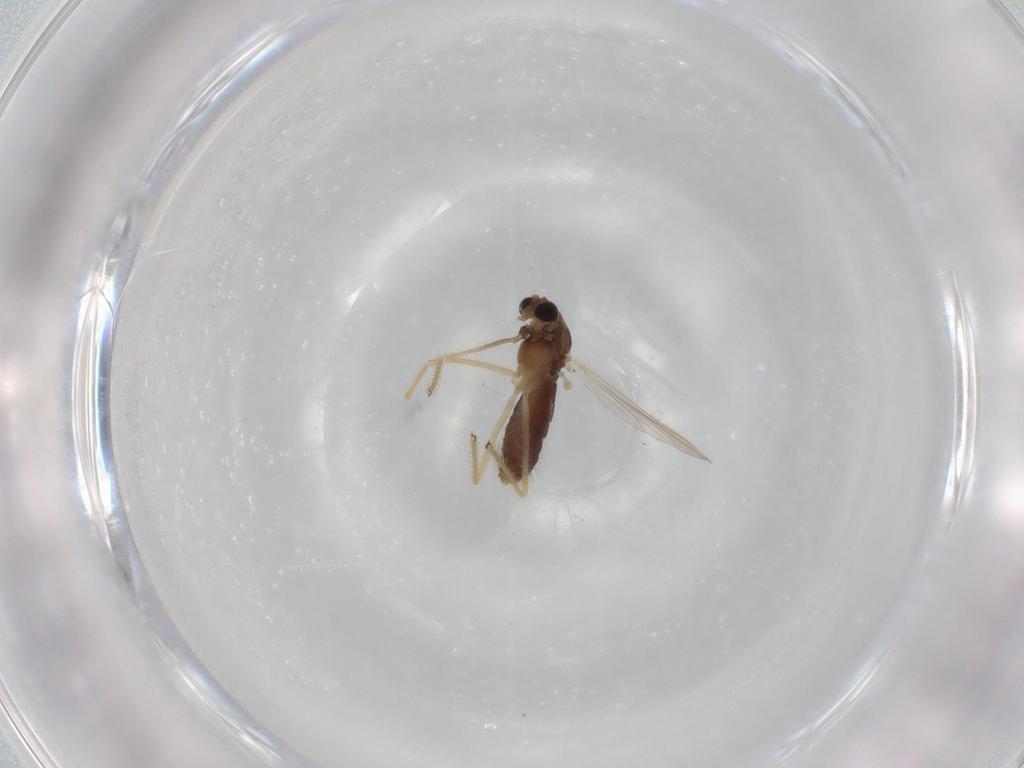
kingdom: Animalia
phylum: Arthropoda
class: Insecta
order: Diptera
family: Chironomidae
